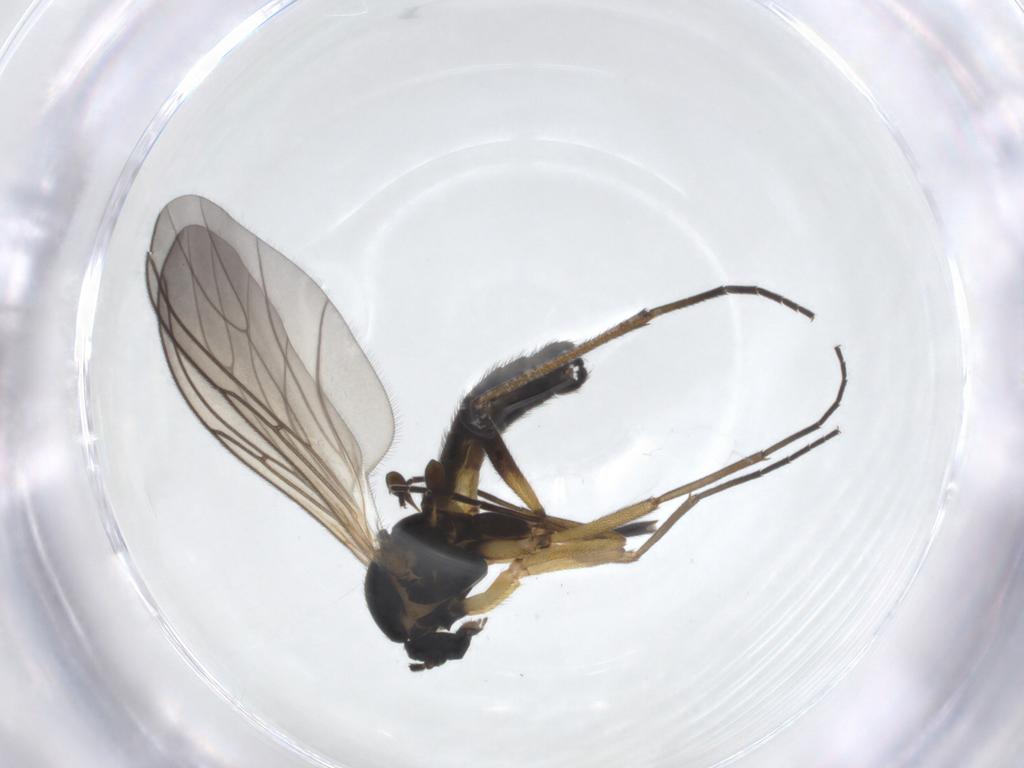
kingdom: Animalia
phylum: Arthropoda
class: Insecta
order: Diptera
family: Sciaridae
